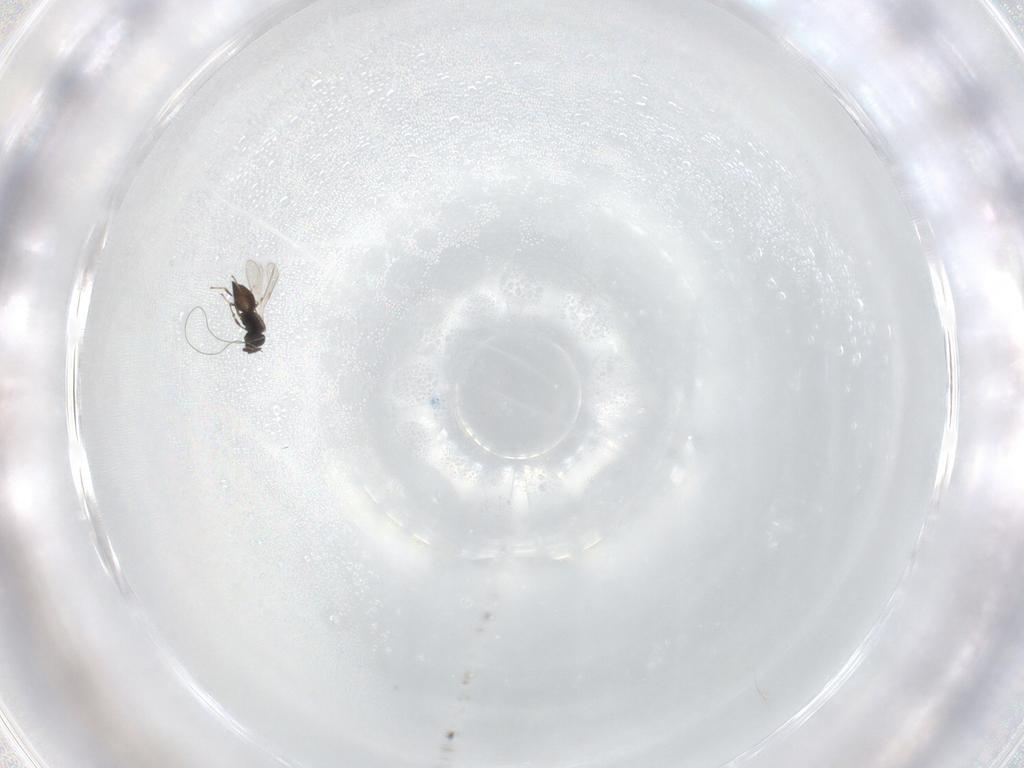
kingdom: Animalia
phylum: Arthropoda
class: Insecta
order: Hymenoptera
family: Scelionidae
